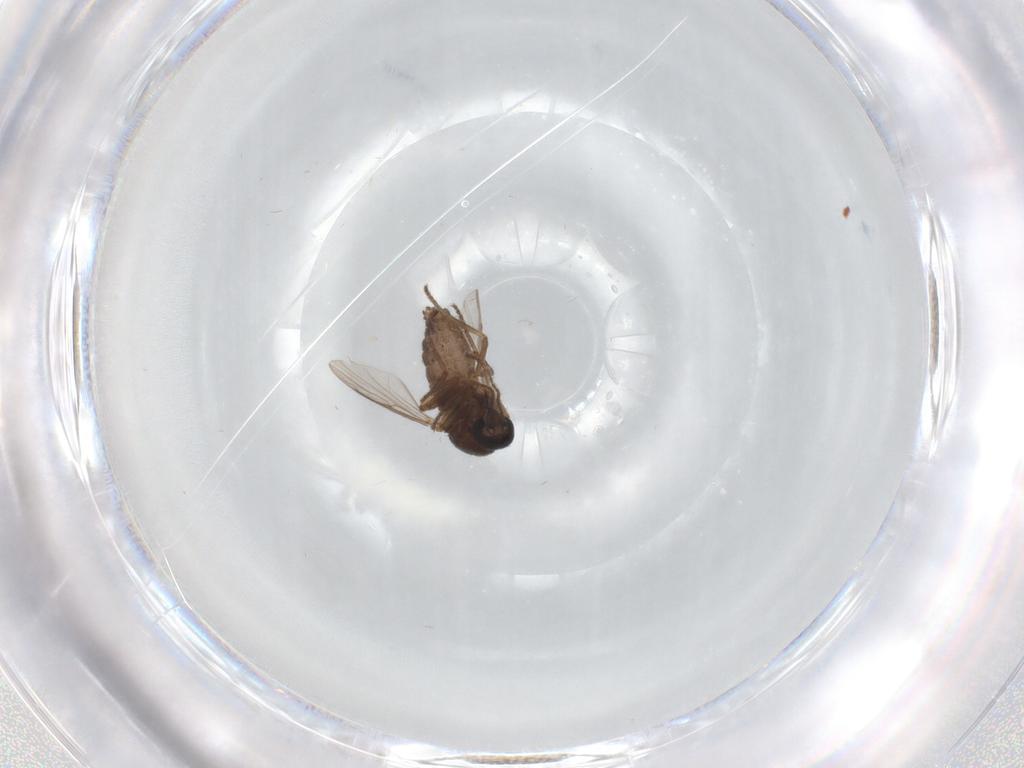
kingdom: Animalia
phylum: Arthropoda
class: Insecta
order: Diptera
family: Ceratopogonidae
